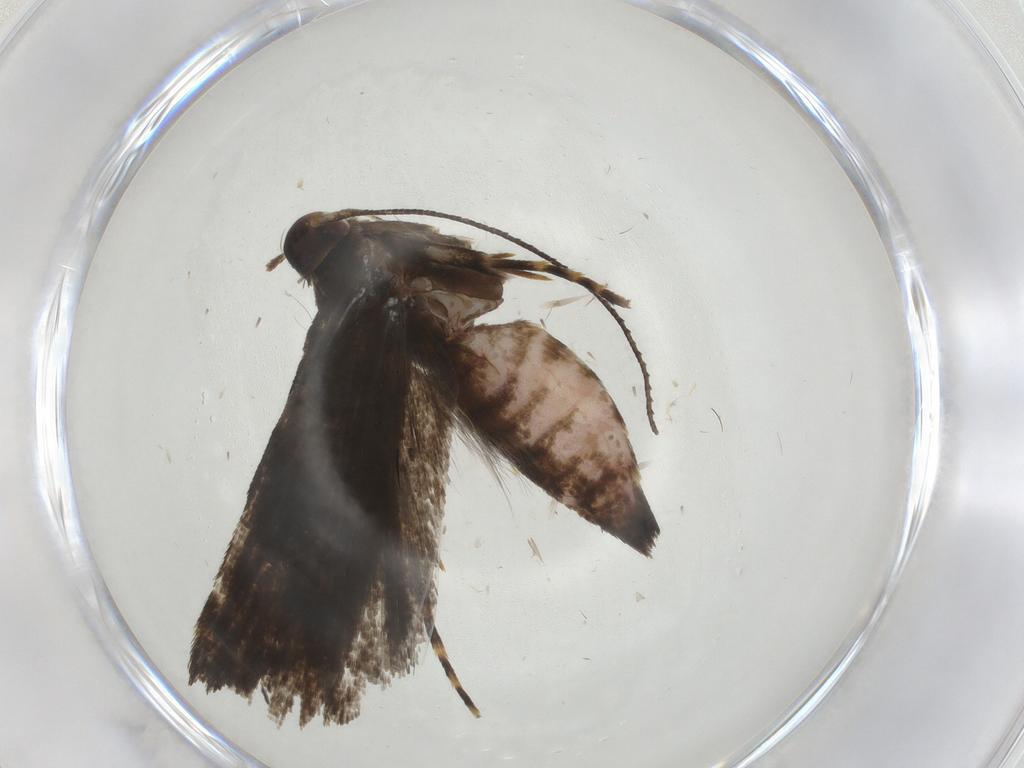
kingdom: Animalia
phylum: Arthropoda
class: Insecta
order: Lepidoptera
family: Gelechiidae
